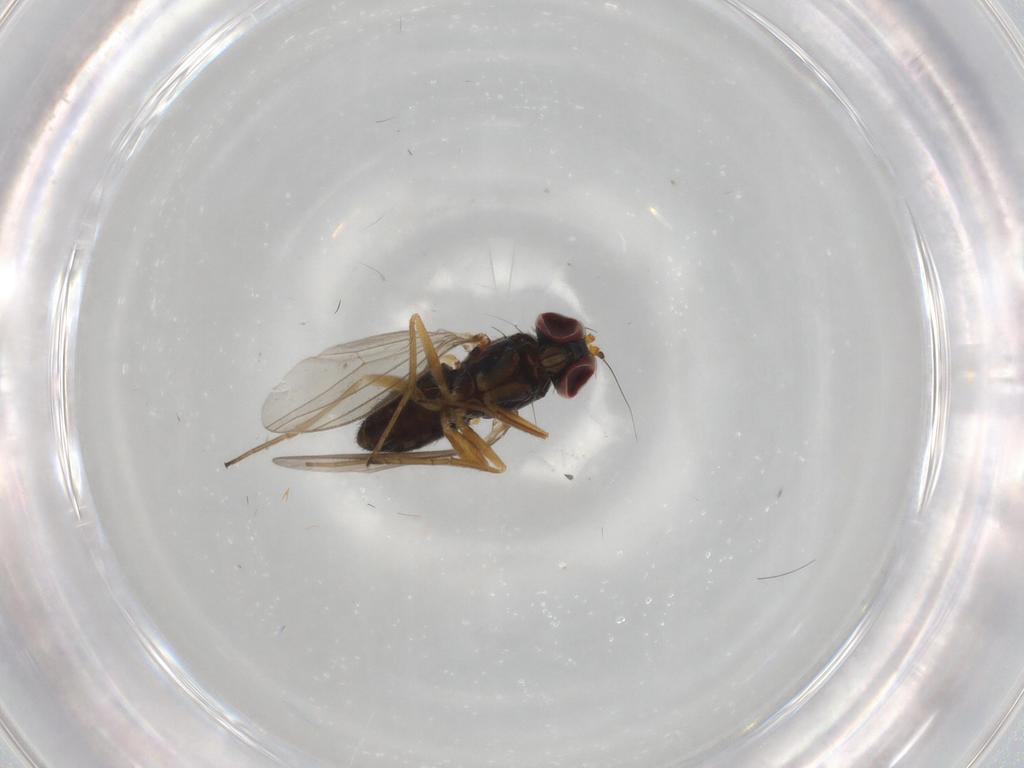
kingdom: Animalia
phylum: Arthropoda
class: Insecta
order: Diptera
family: Dolichopodidae
